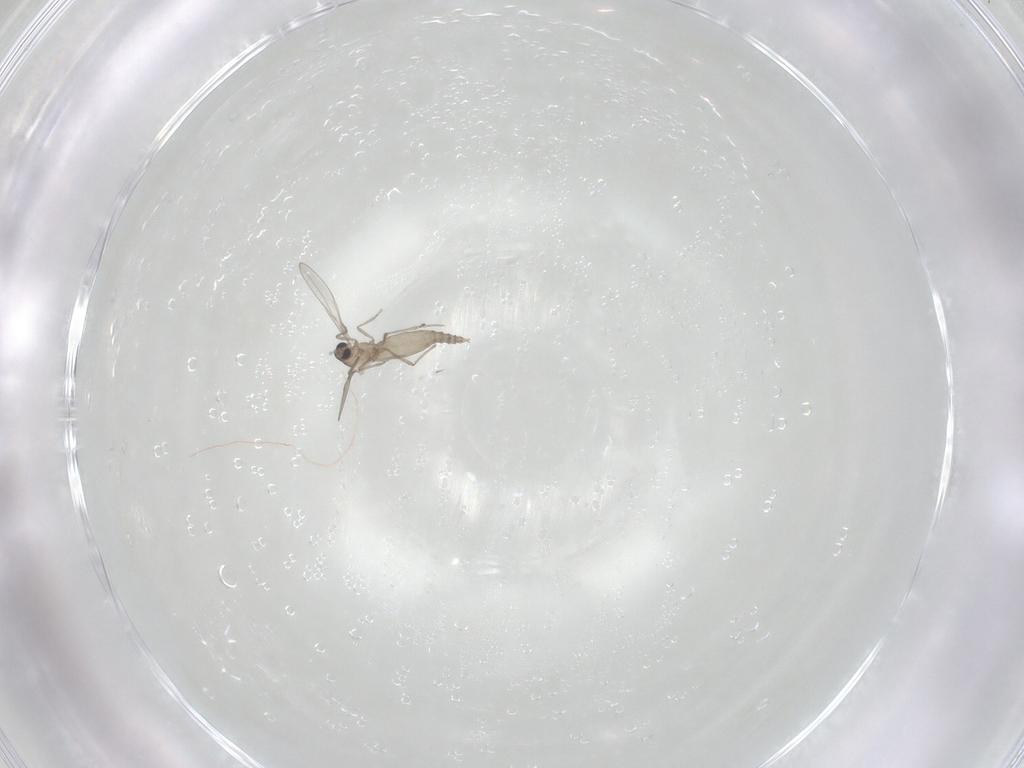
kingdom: Animalia
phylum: Arthropoda
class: Insecta
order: Diptera
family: Cecidomyiidae
